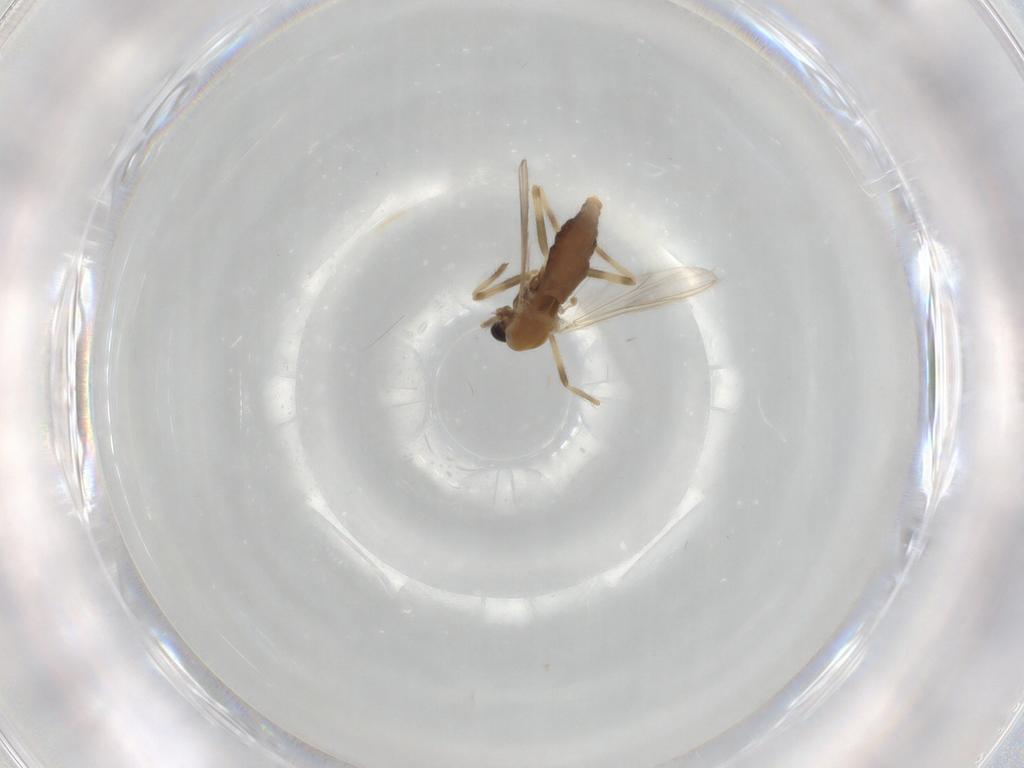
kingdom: Animalia
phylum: Arthropoda
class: Insecta
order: Diptera
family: Chironomidae
